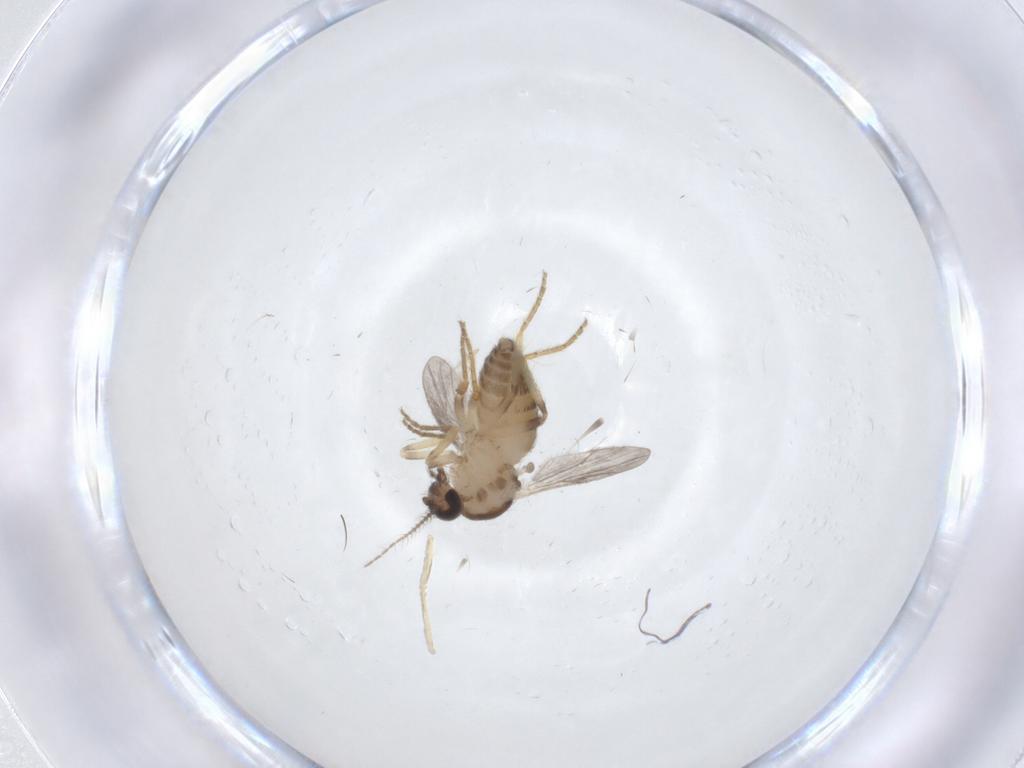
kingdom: Animalia
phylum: Arthropoda
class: Insecta
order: Diptera
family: Ceratopogonidae
